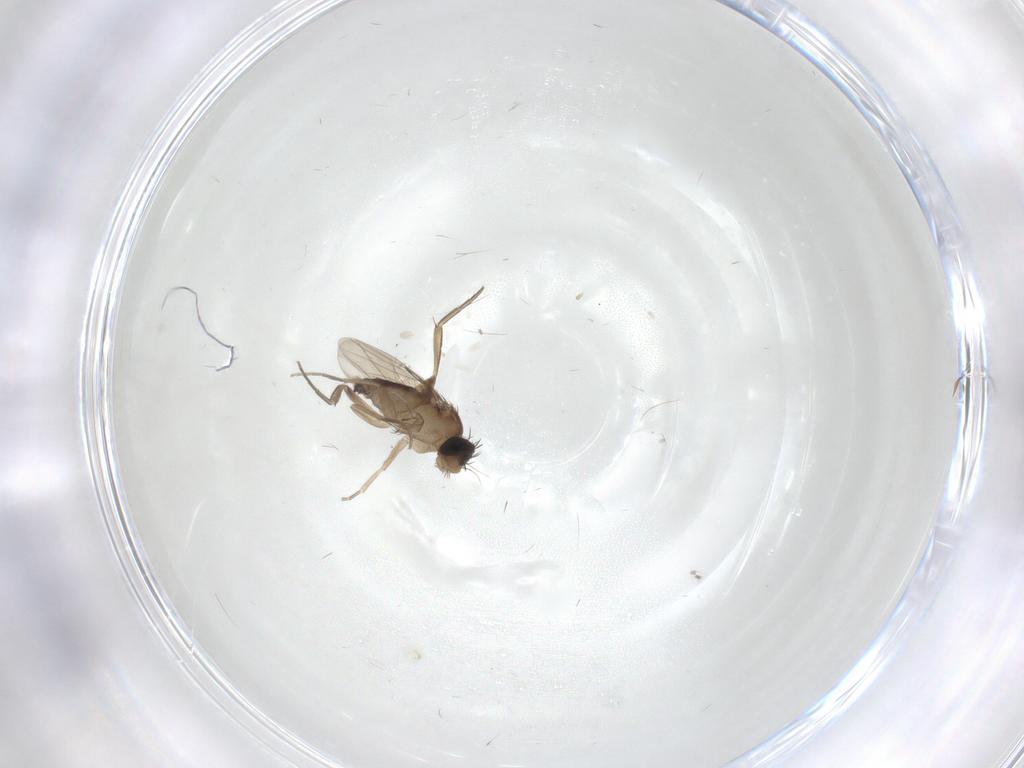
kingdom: Animalia
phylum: Arthropoda
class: Insecta
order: Diptera
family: Phoridae
